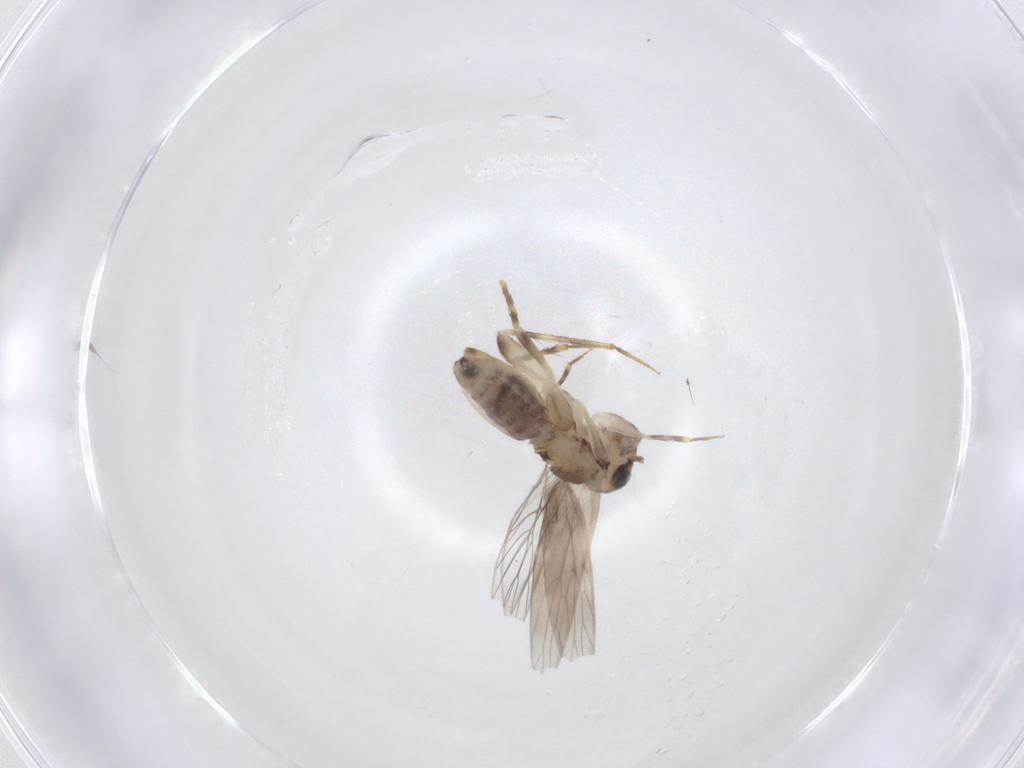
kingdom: Animalia
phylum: Arthropoda
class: Insecta
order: Psocodea
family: Lepidopsocidae
